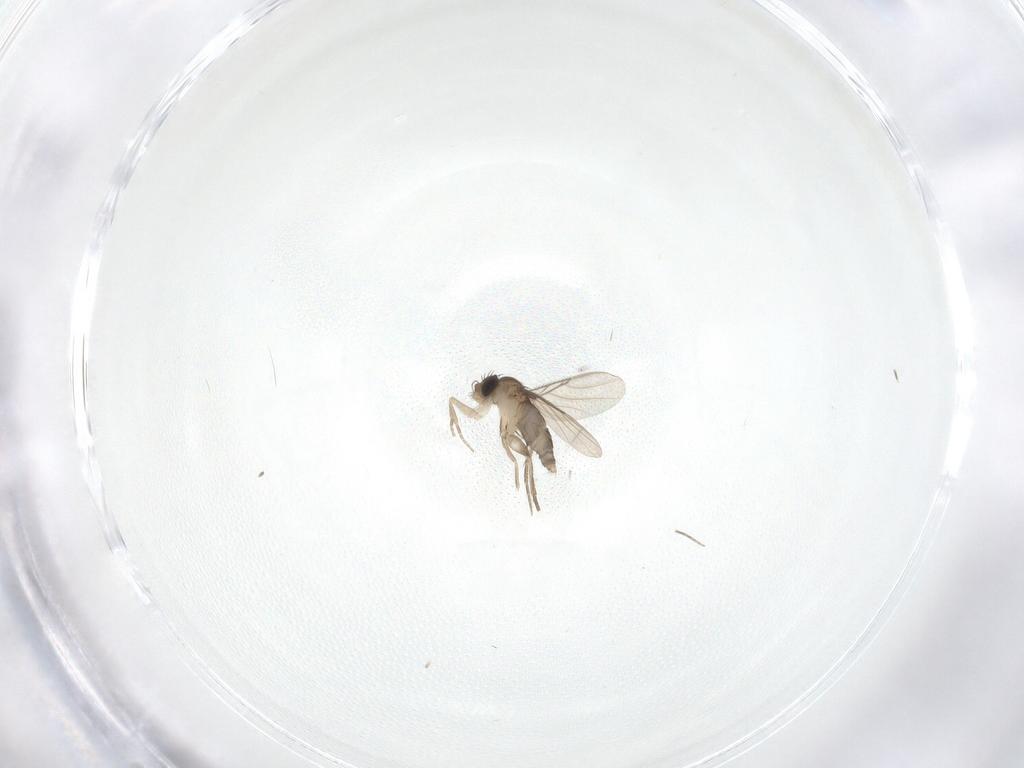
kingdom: Animalia
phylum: Arthropoda
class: Insecta
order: Diptera
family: Phoridae
